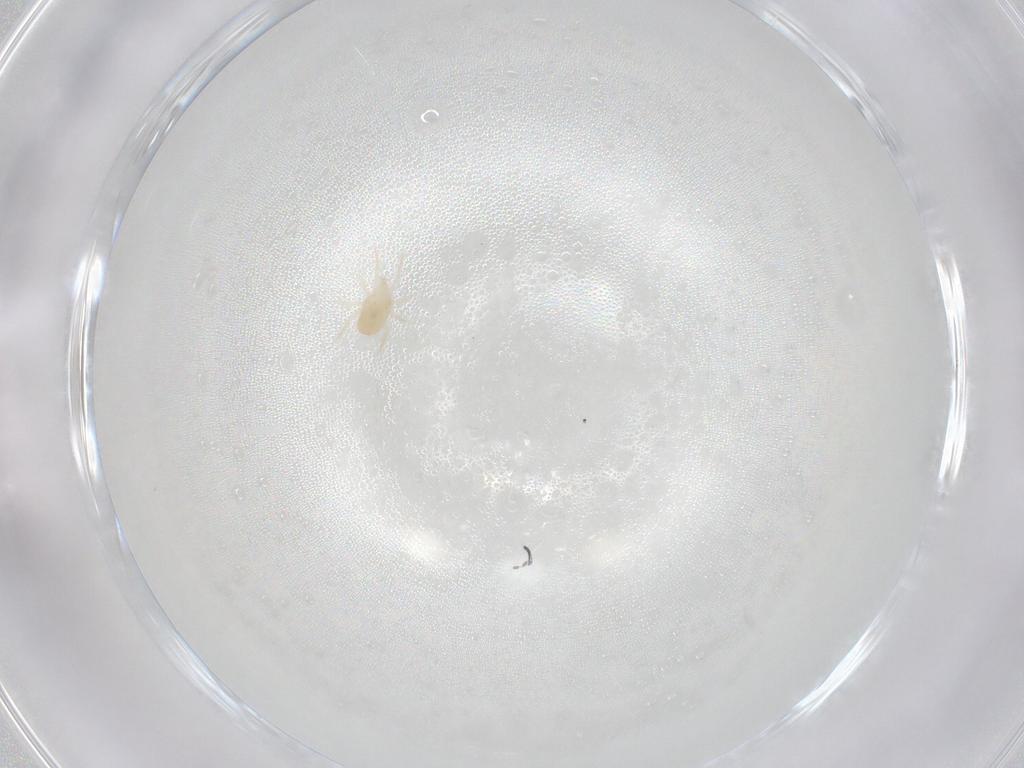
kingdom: Animalia
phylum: Arthropoda
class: Arachnida
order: Mesostigmata
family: Blattisociidae
